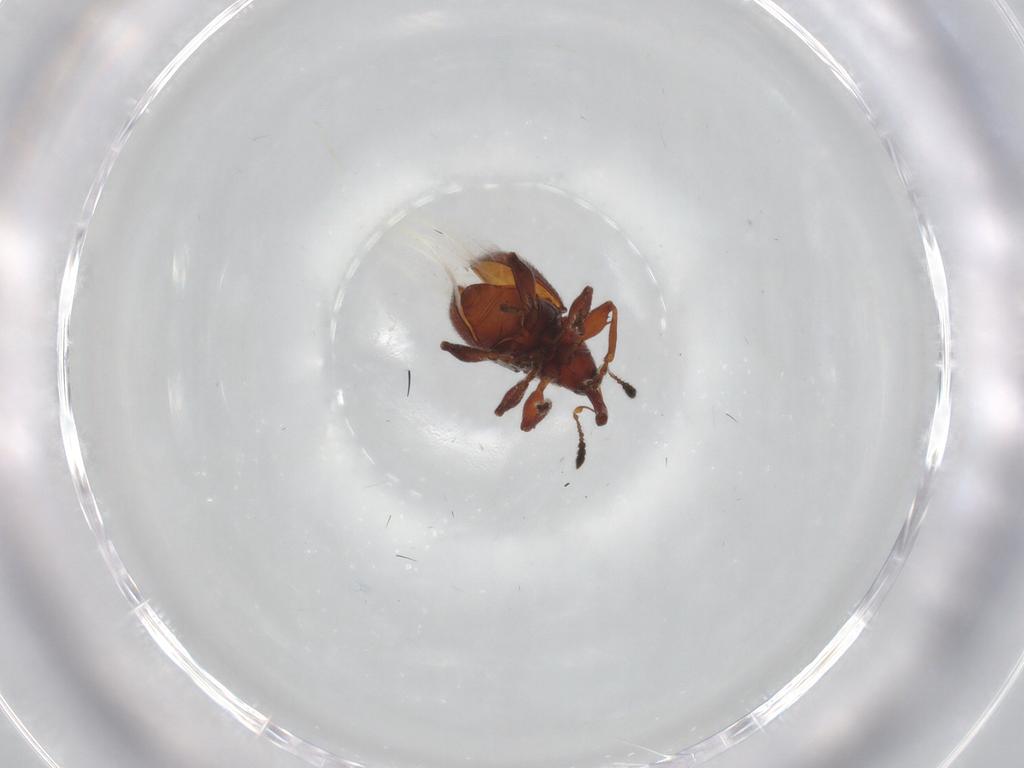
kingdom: Animalia
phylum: Arthropoda
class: Insecta
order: Coleoptera
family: Brentidae
